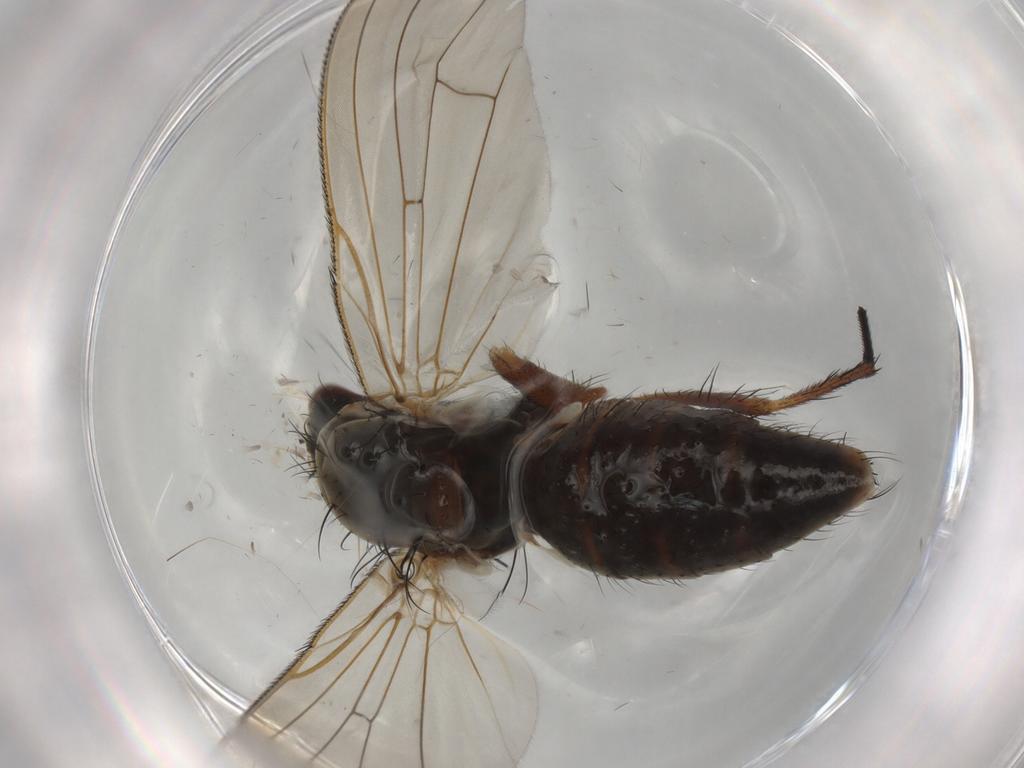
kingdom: Animalia
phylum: Arthropoda
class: Insecta
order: Diptera
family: Anthomyiidae
